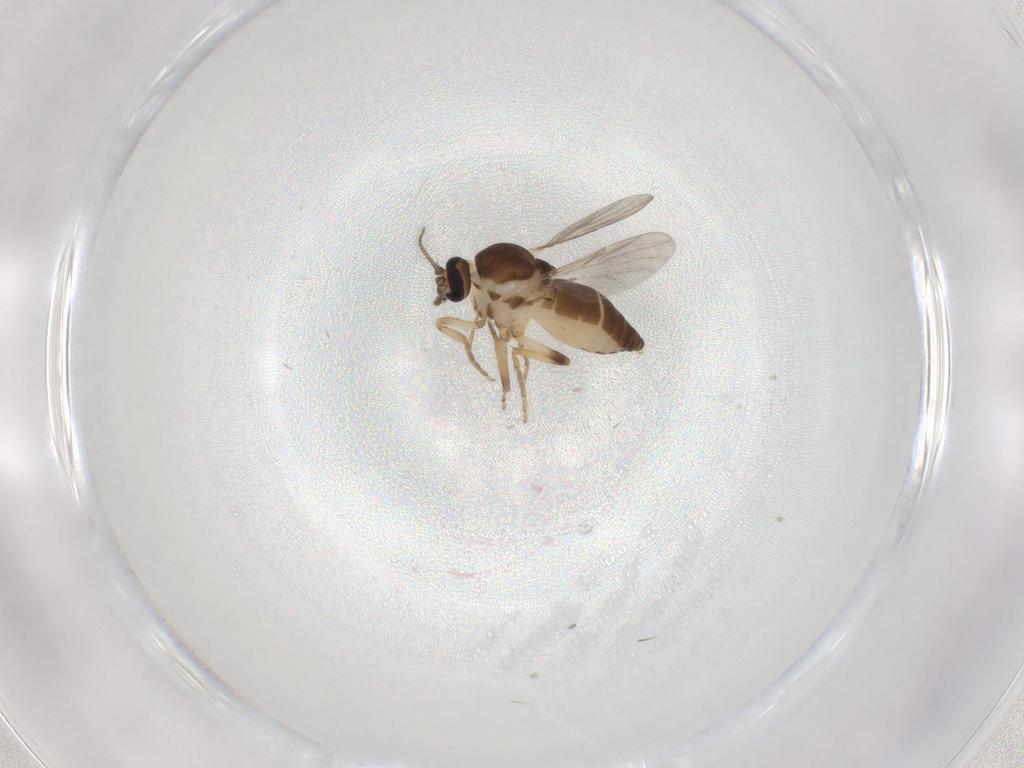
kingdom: Animalia
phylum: Arthropoda
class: Insecta
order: Diptera
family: Ceratopogonidae
